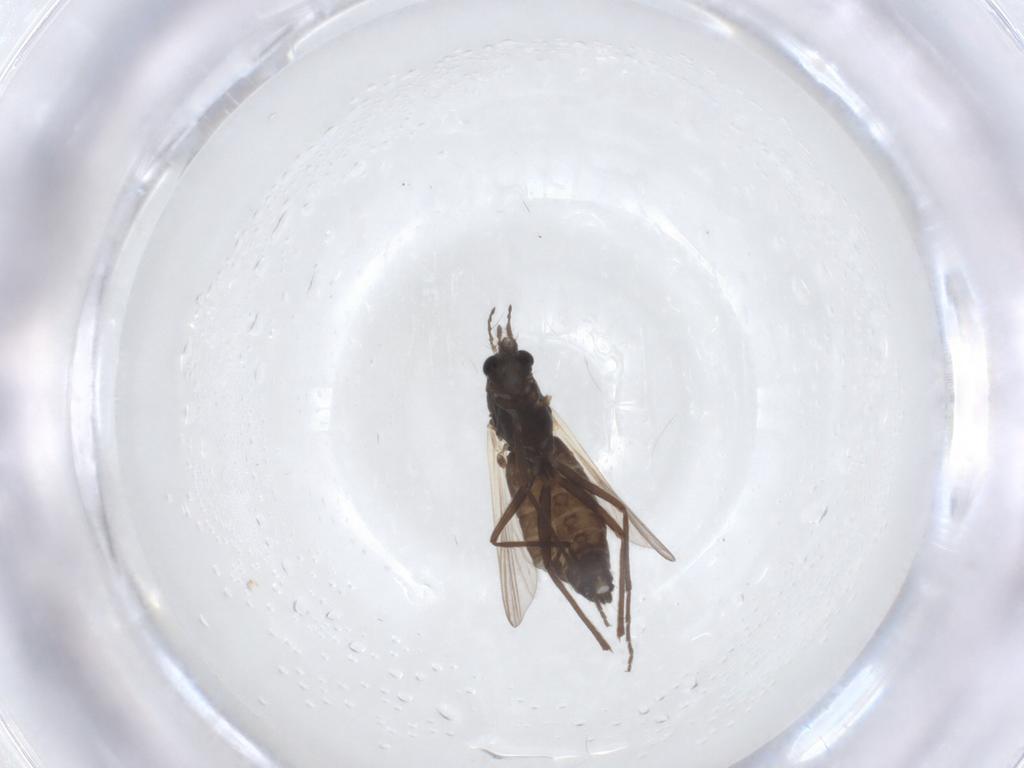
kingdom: Animalia
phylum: Arthropoda
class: Insecta
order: Diptera
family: Chironomidae
